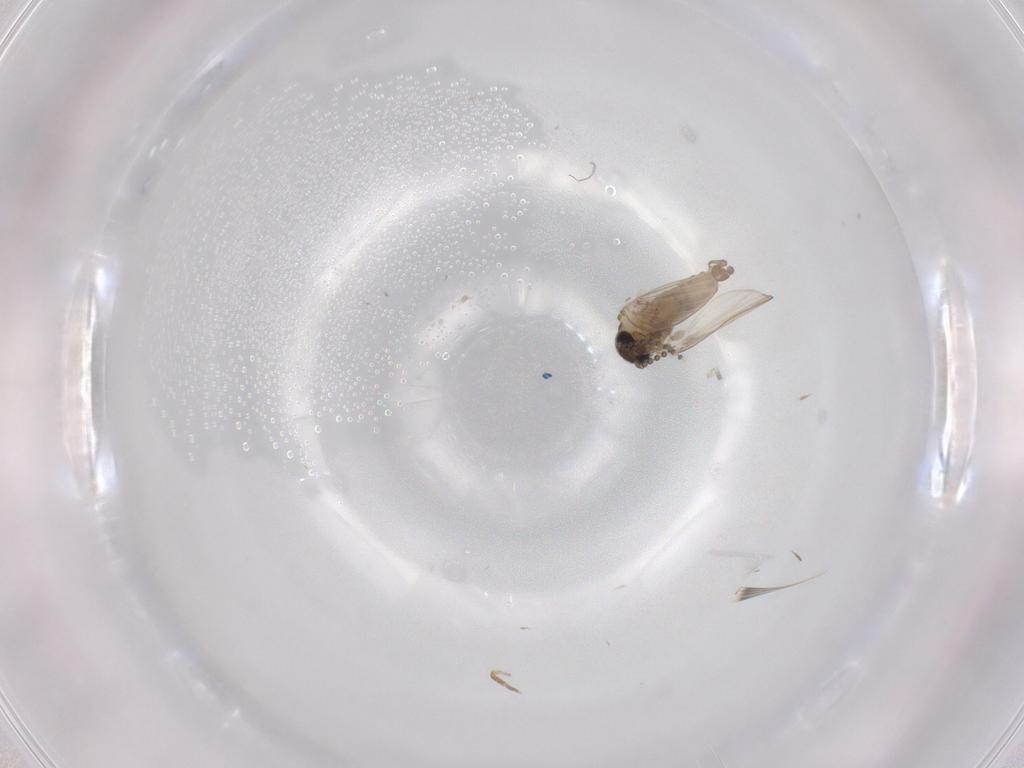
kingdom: Animalia
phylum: Arthropoda
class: Insecta
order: Diptera
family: Psychodidae
